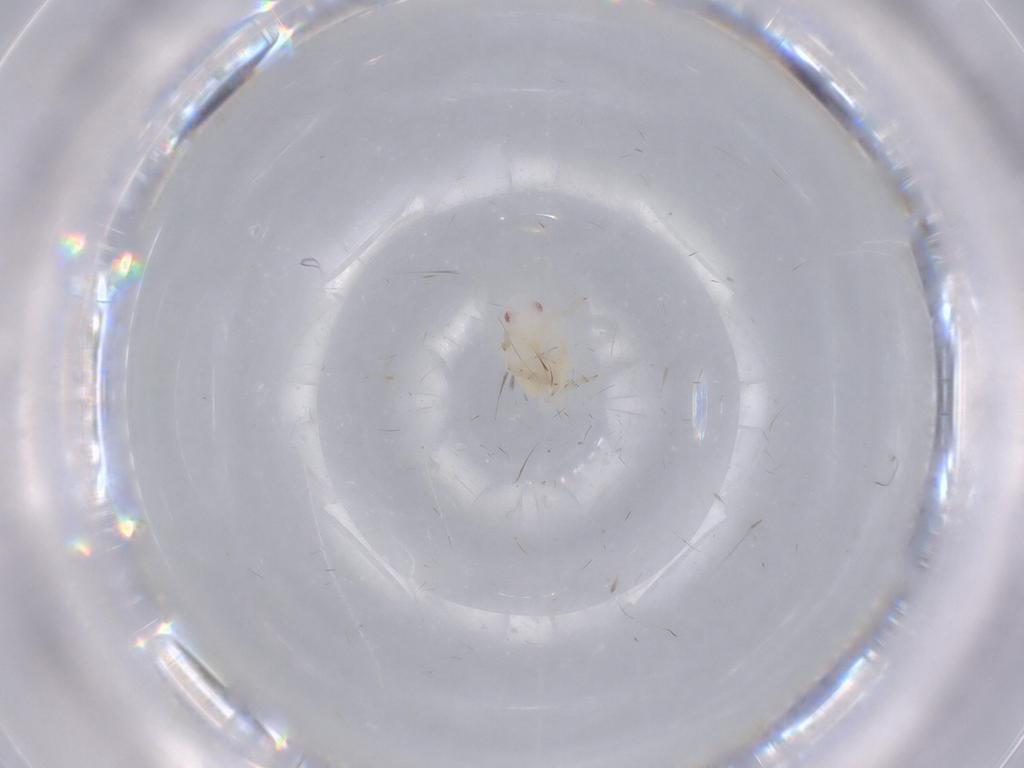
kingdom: Animalia
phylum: Arthropoda
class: Insecta
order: Hemiptera
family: Flatidae
